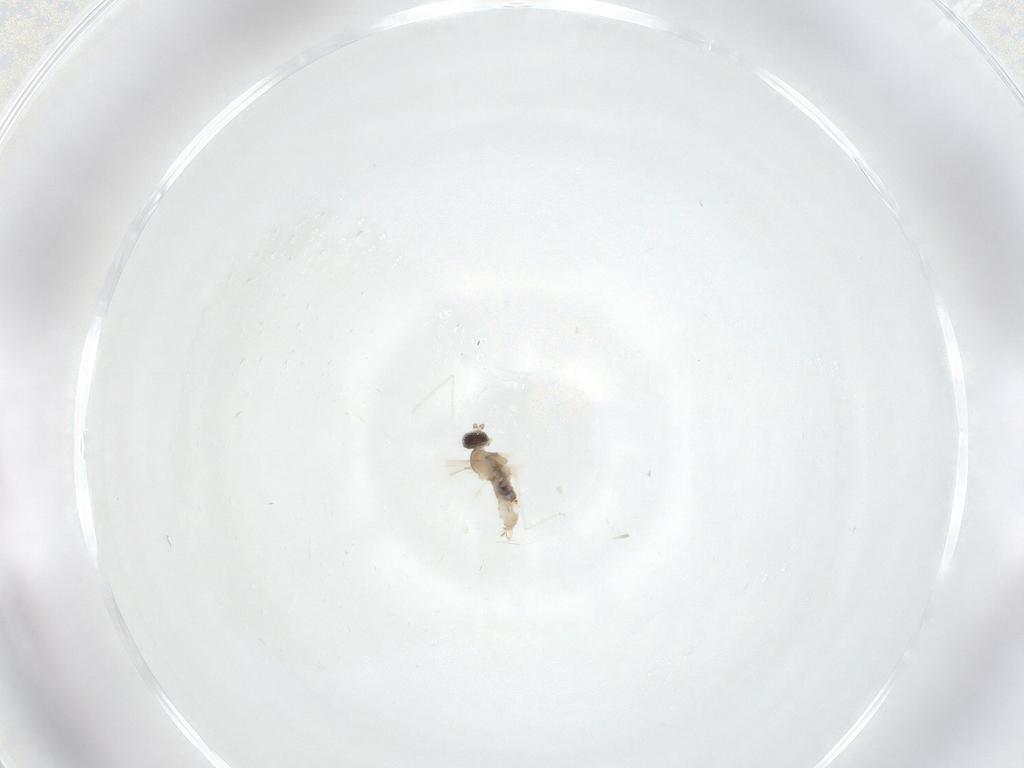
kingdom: Animalia
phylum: Arthropoda
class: Insecta
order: Diptera
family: Cecidomyiidae
